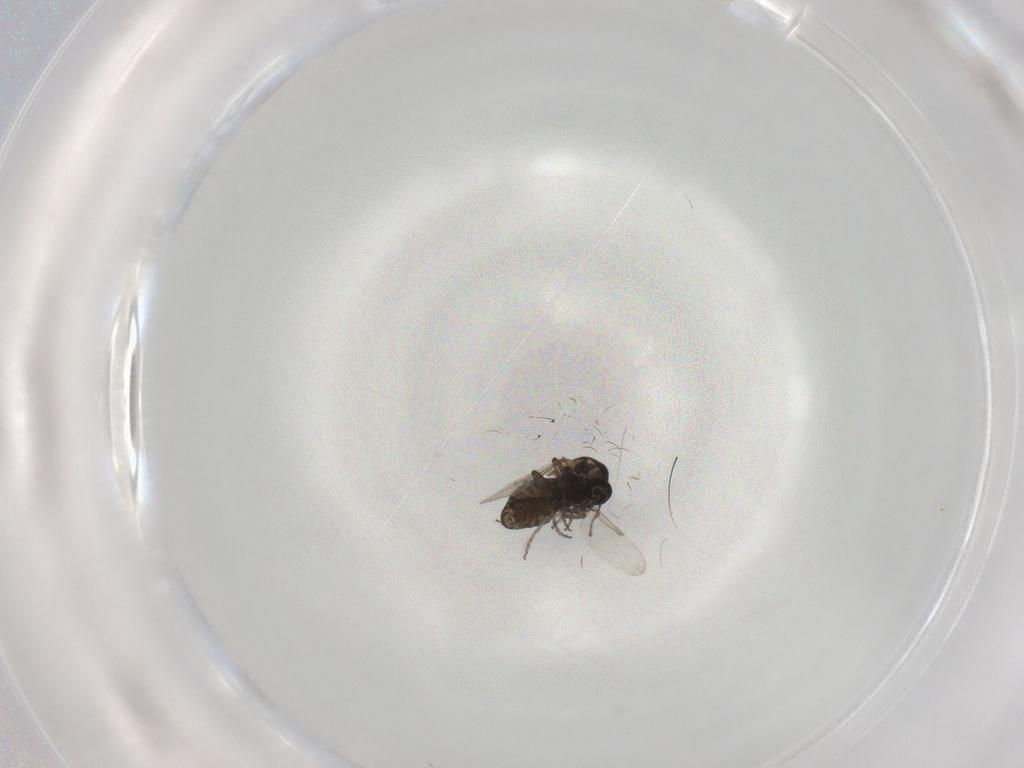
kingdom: Animalia
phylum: Arthropoda
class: Insecta
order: Diptera
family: Ceratopogonidae
